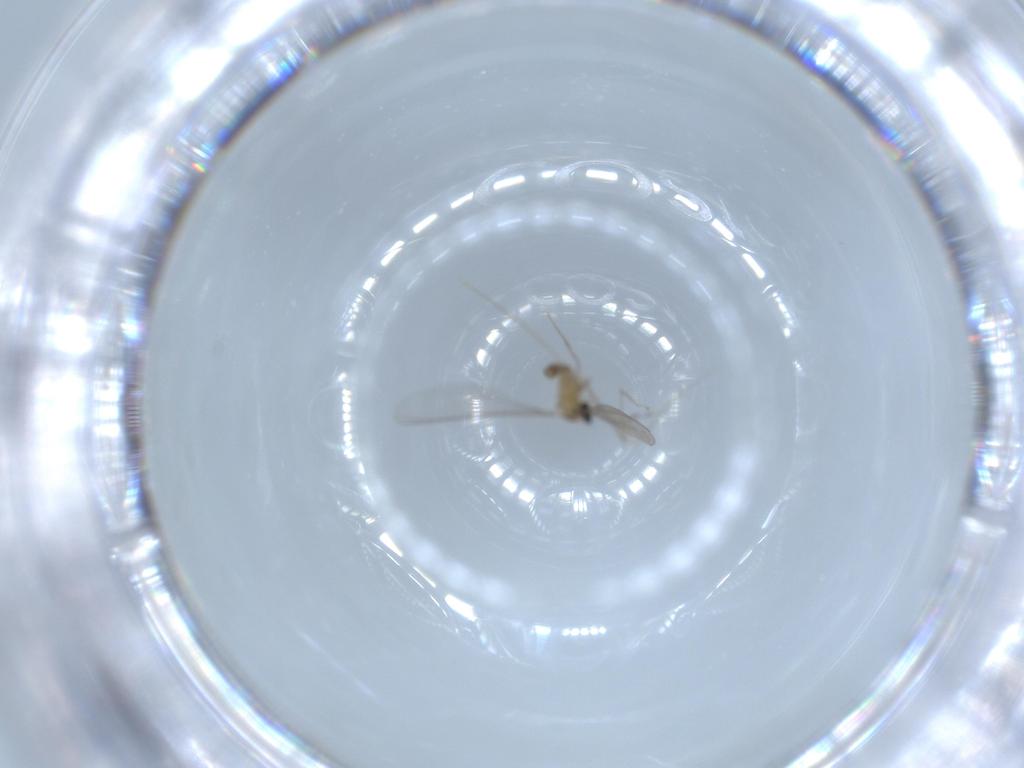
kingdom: Animalia
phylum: Arthropoda
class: Insecta
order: Diptera
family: Cecidomyiidae
